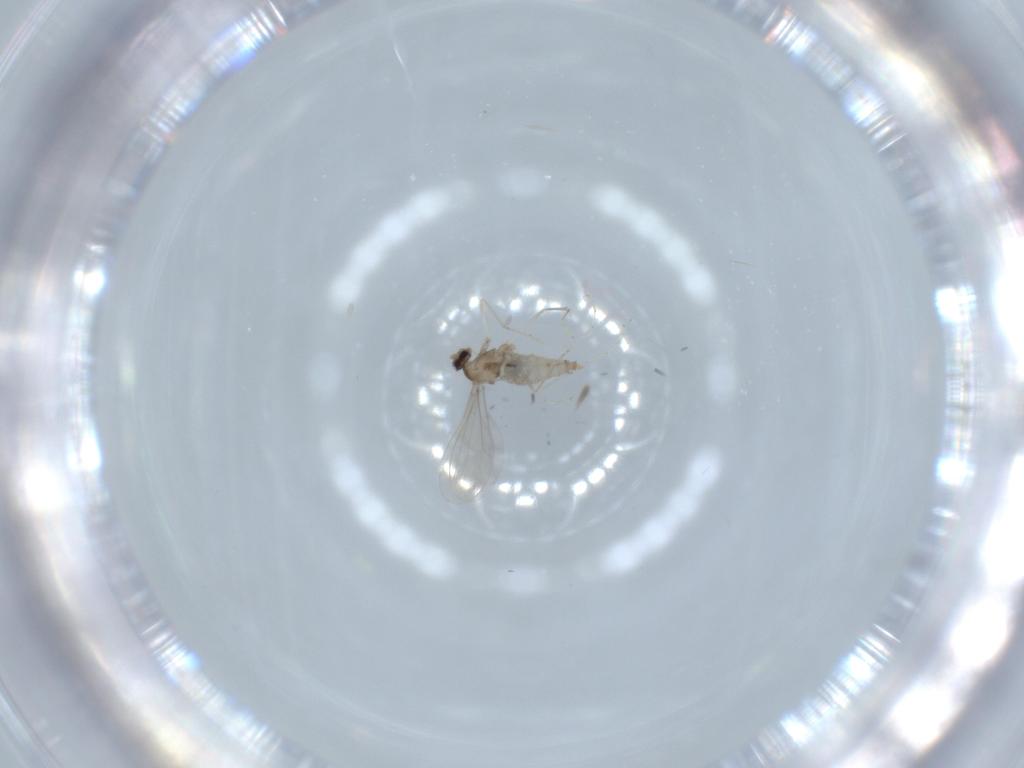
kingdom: Animalia
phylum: Arthropoda
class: Insecta
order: Diptera
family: Cecidomyiidae
